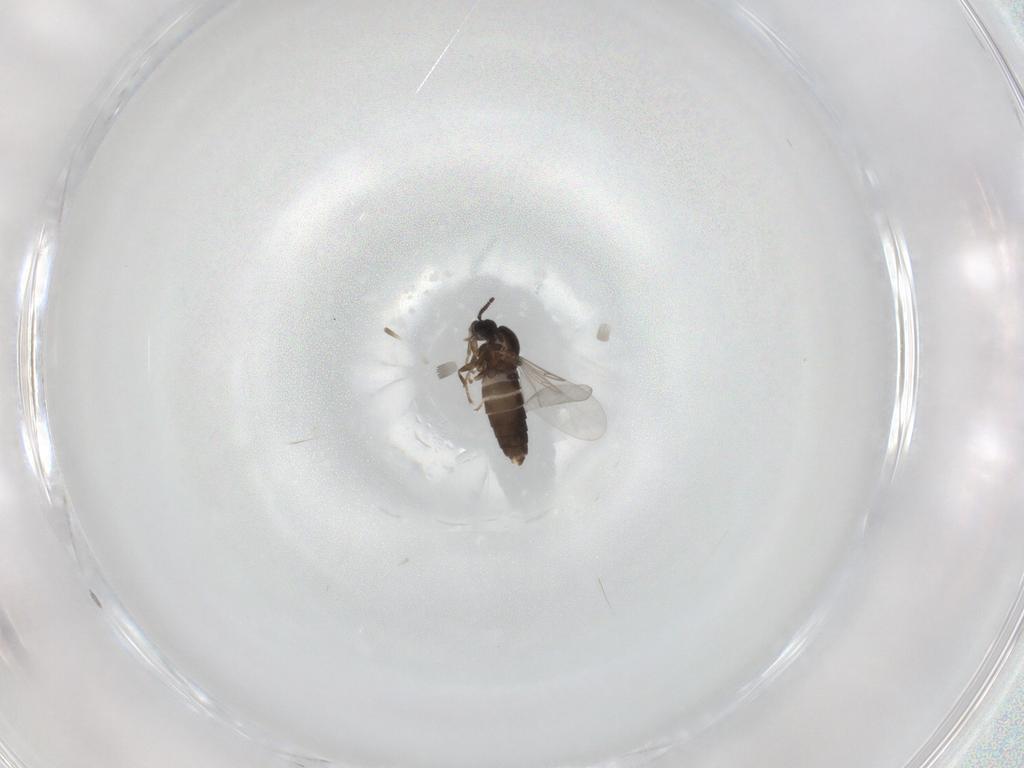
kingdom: Animalia
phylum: Arthropoda
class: Insecta
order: Diptera
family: Scatopsidae
